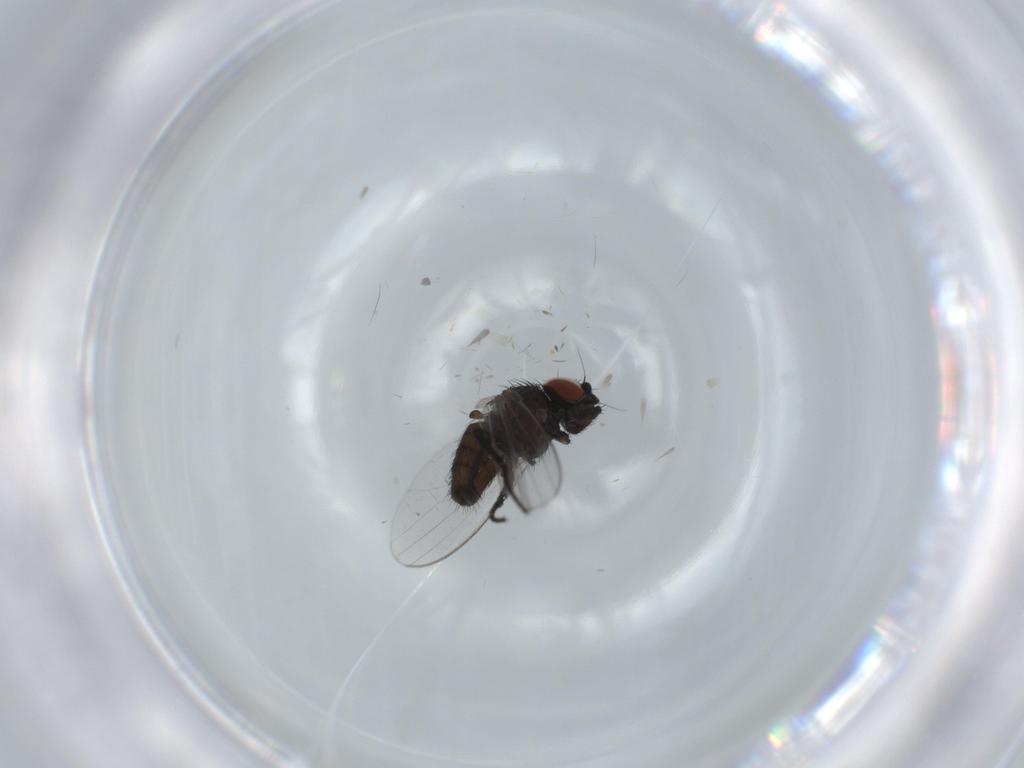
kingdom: Animalia
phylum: Arthropoda
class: Insecta
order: Diptera
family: Milichiidae
